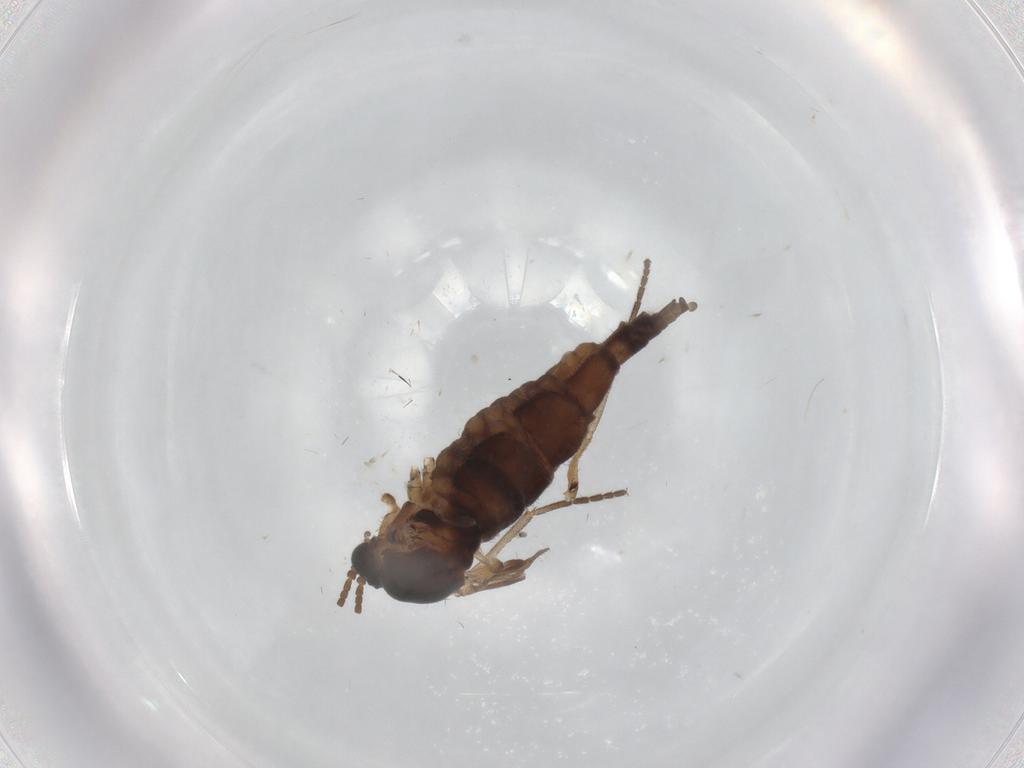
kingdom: Animalia
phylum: Arthropoda
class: Insecta
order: Diptera
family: Sciaridae
